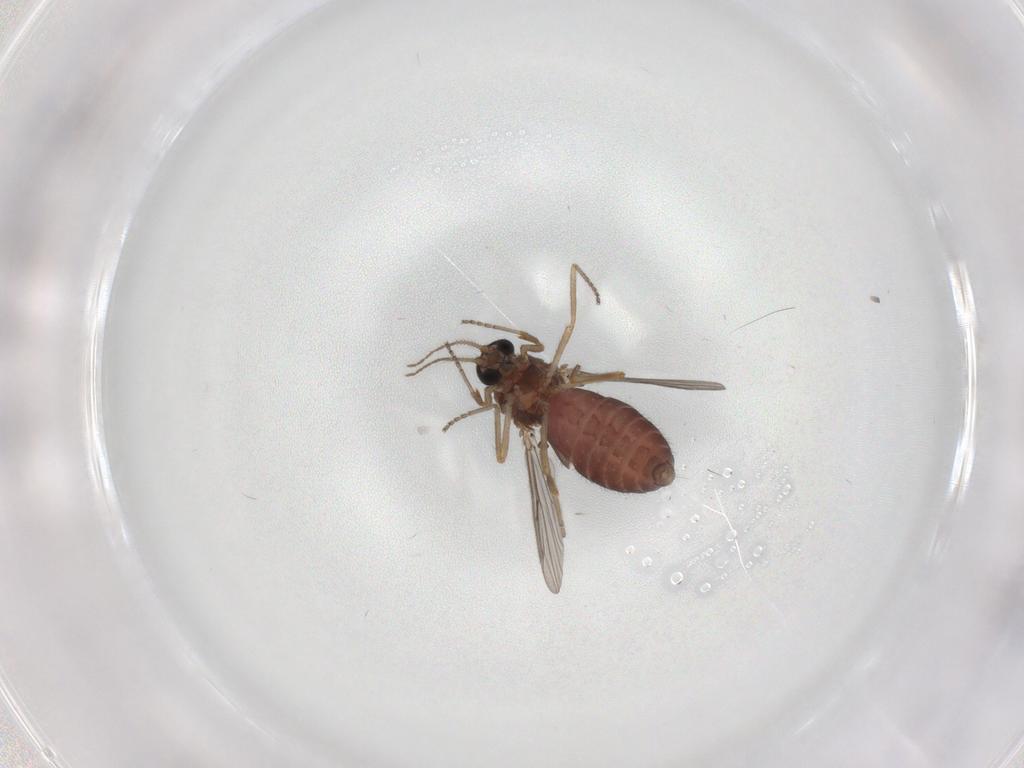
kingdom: Animalia
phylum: Arthropoda
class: Insecta
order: Diptera
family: Ceratopogonidae
